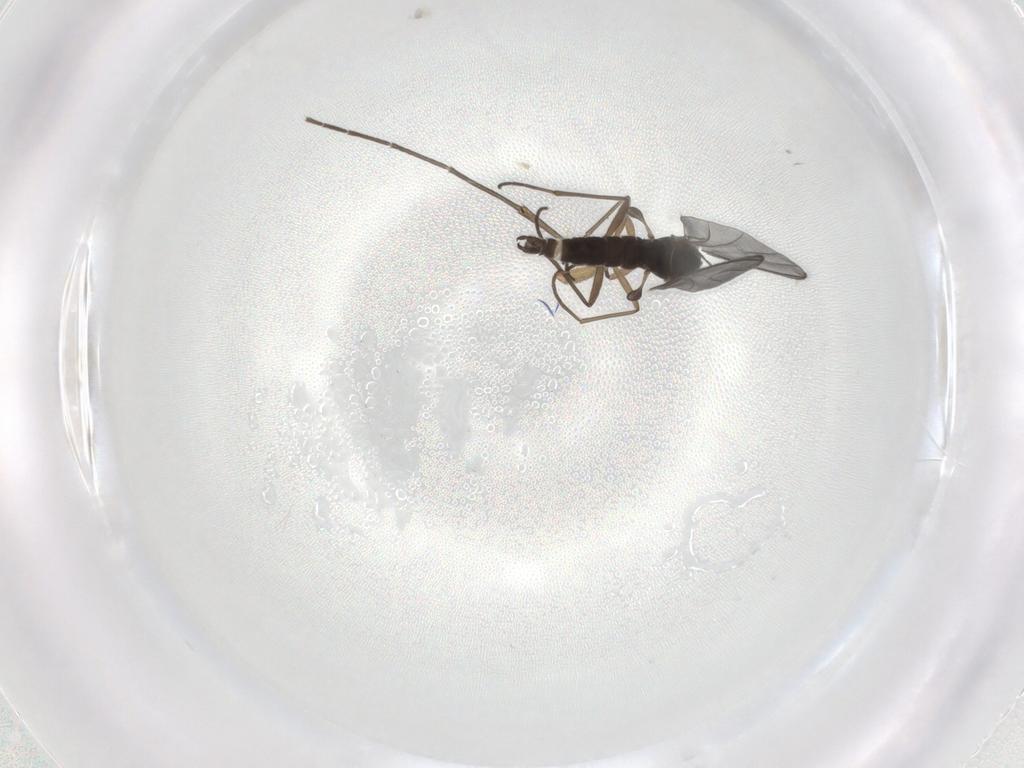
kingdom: Animalia
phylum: Arthropoda
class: Insecta
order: Diptera
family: Sciaridae
